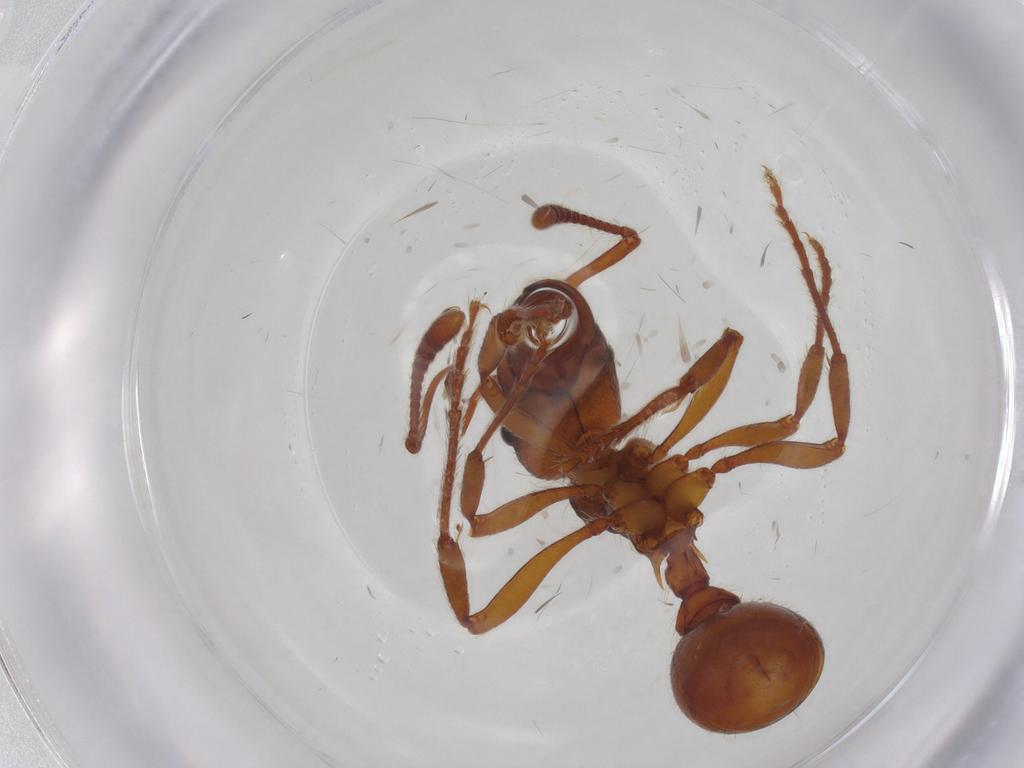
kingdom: Animalia
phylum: Arthropoda
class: Insecta
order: Hymenoptera
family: Formicidae
